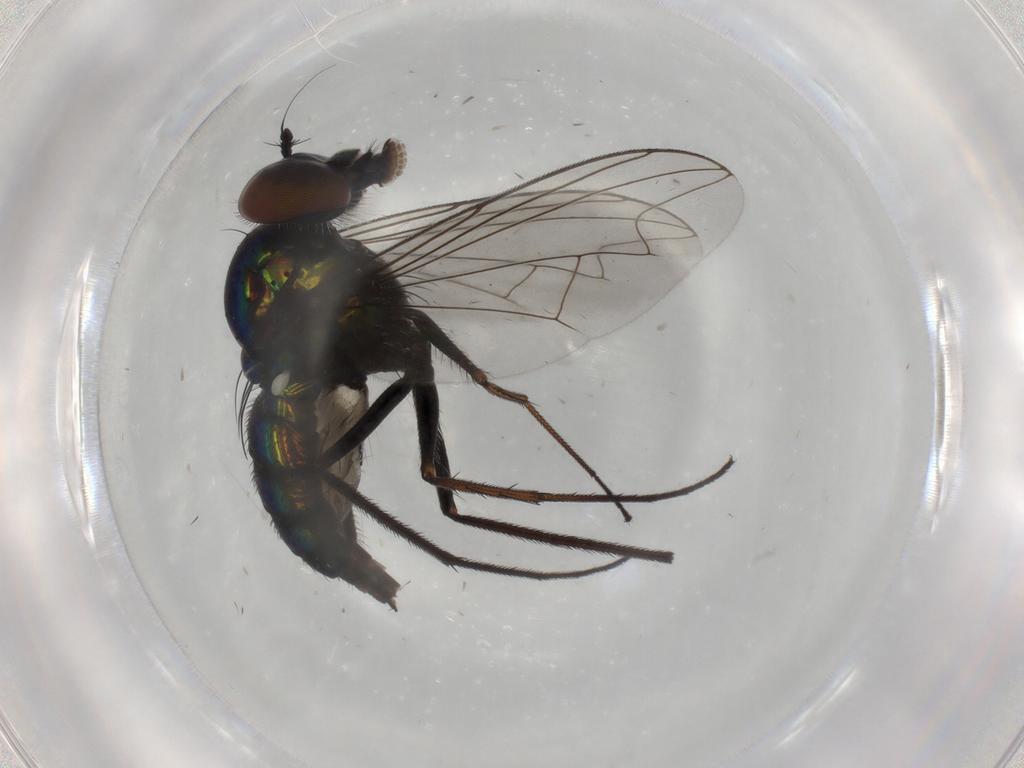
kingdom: Animalia
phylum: Arthropoda
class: Insecta
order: Diptera
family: Dolichopodidae
